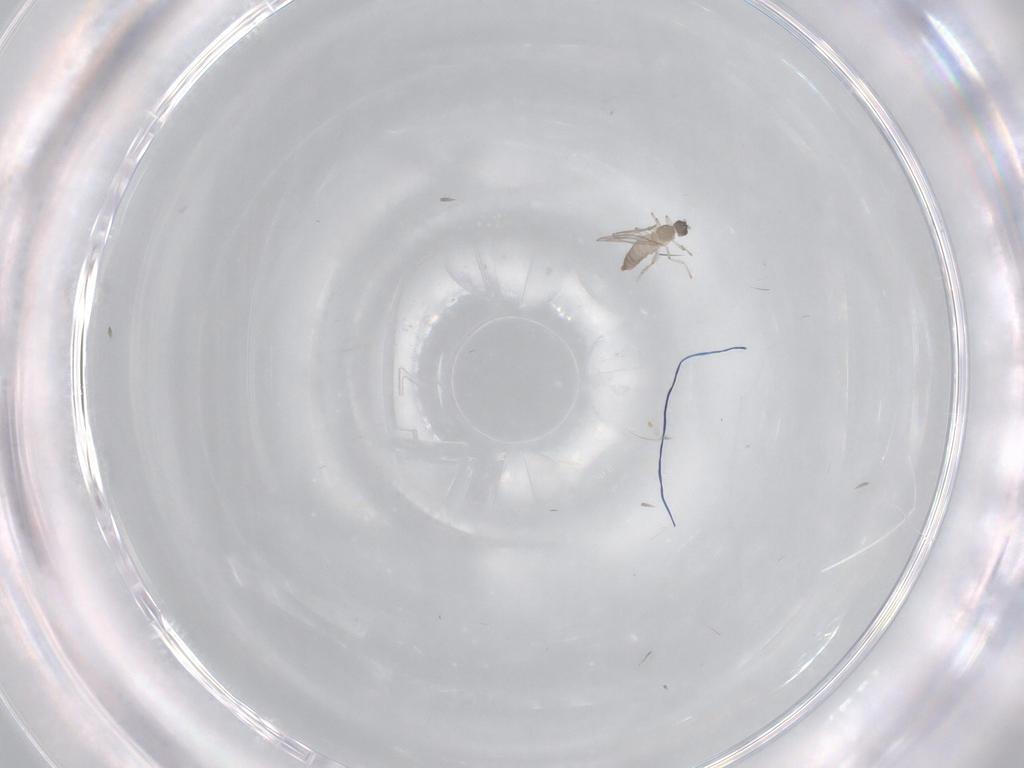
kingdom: Animalia
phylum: Arthropoda
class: Insecta
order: Diptera
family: Cecidomyiidae
